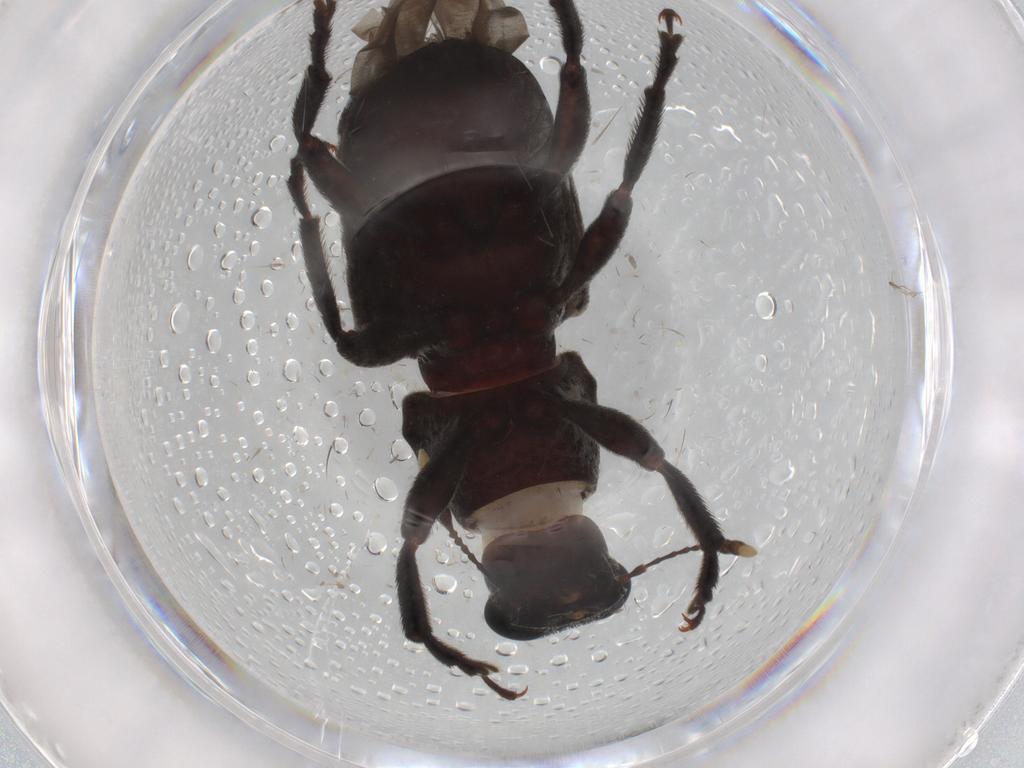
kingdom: Animalia
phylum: Arthropoda
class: Insecta
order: Coleoptera
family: Anthribidae
